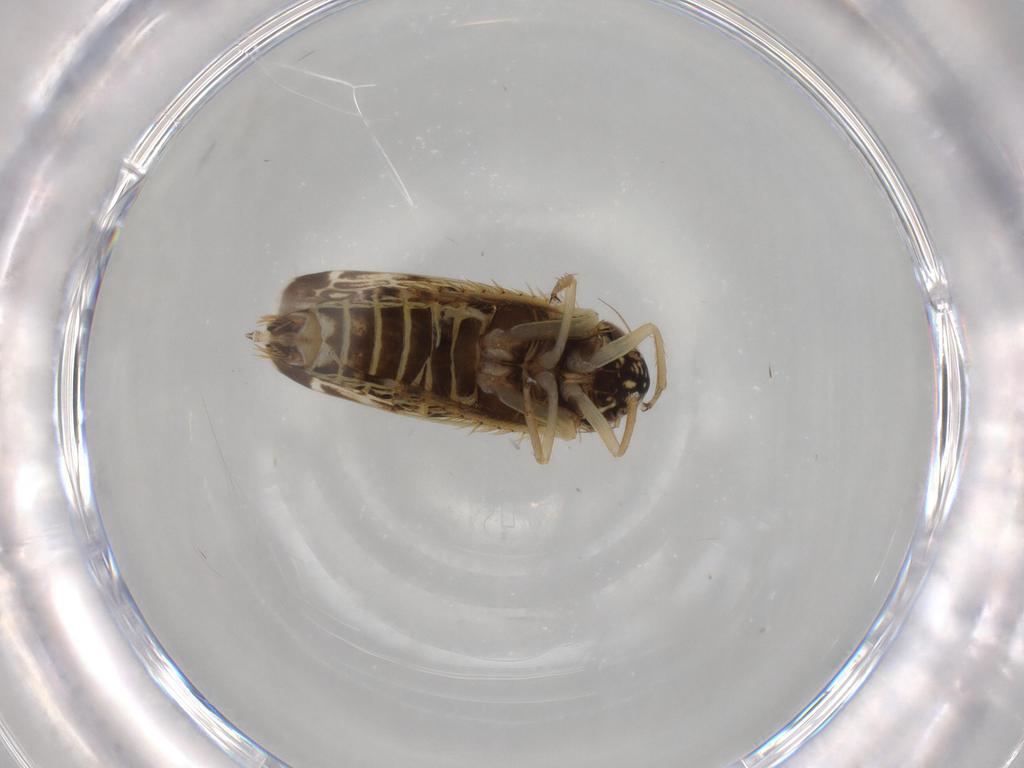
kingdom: Animalia
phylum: Arthropoda
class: Insecta
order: Hemiptera
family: Cicadellidae
